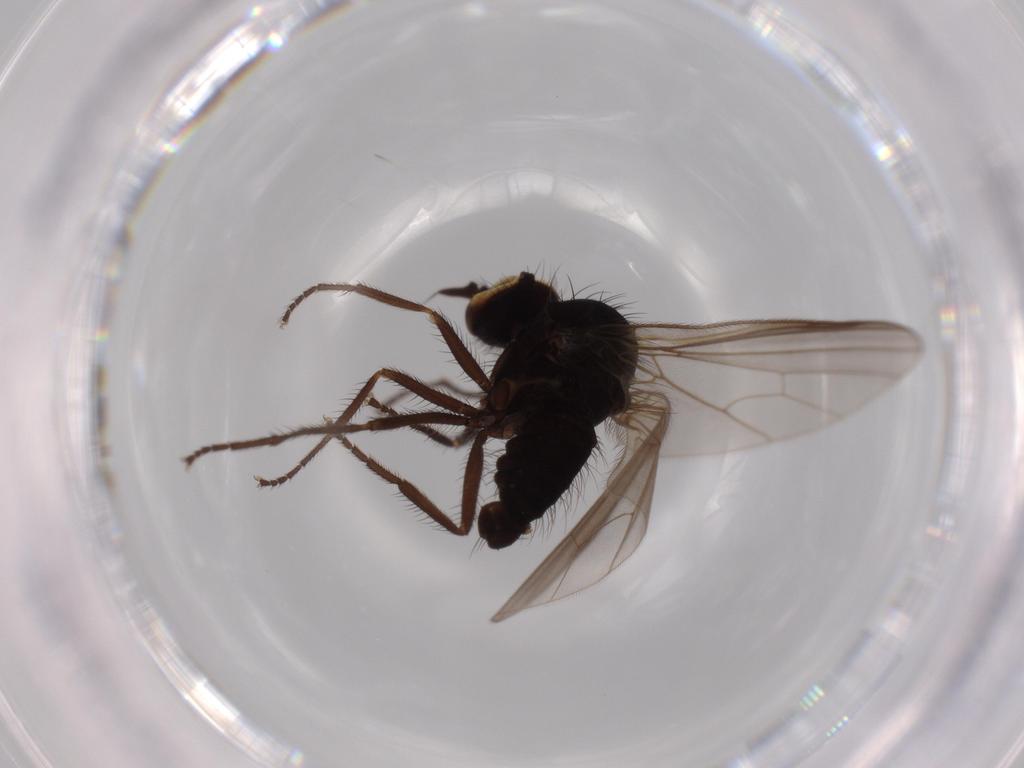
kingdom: Animalia
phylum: Arthropoda
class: Insecta
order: Diptera
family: Dolichopodidae
